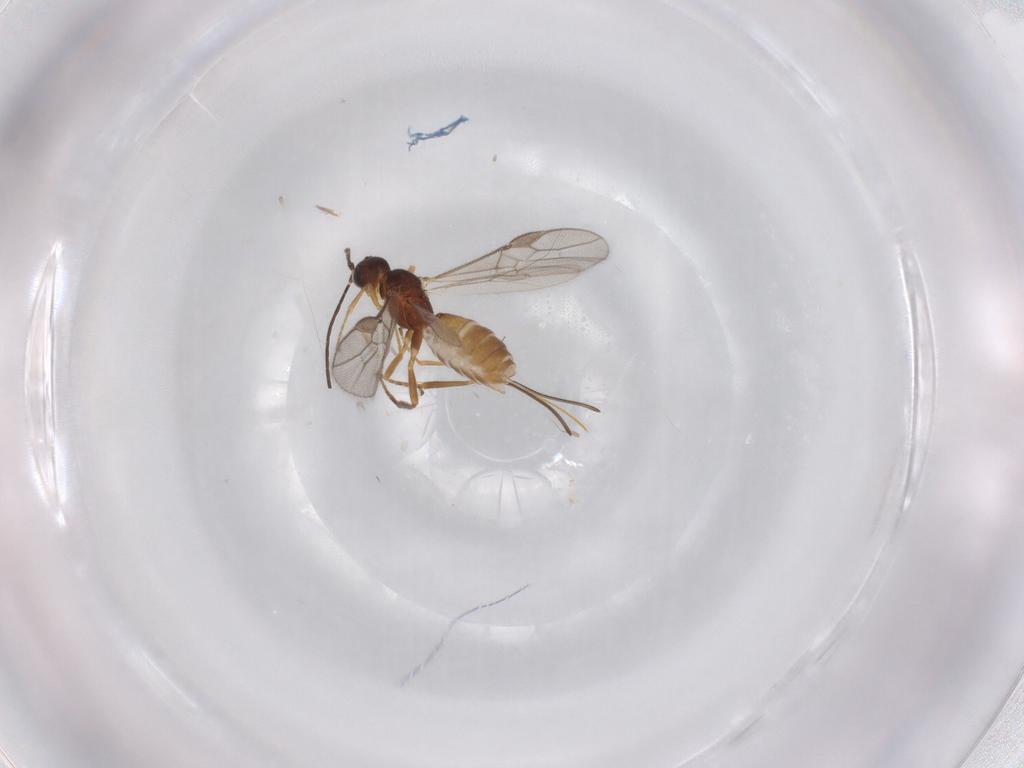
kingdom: Animalia
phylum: Arthropoda
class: Insecta
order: Hymenoptera
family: Braconidae
